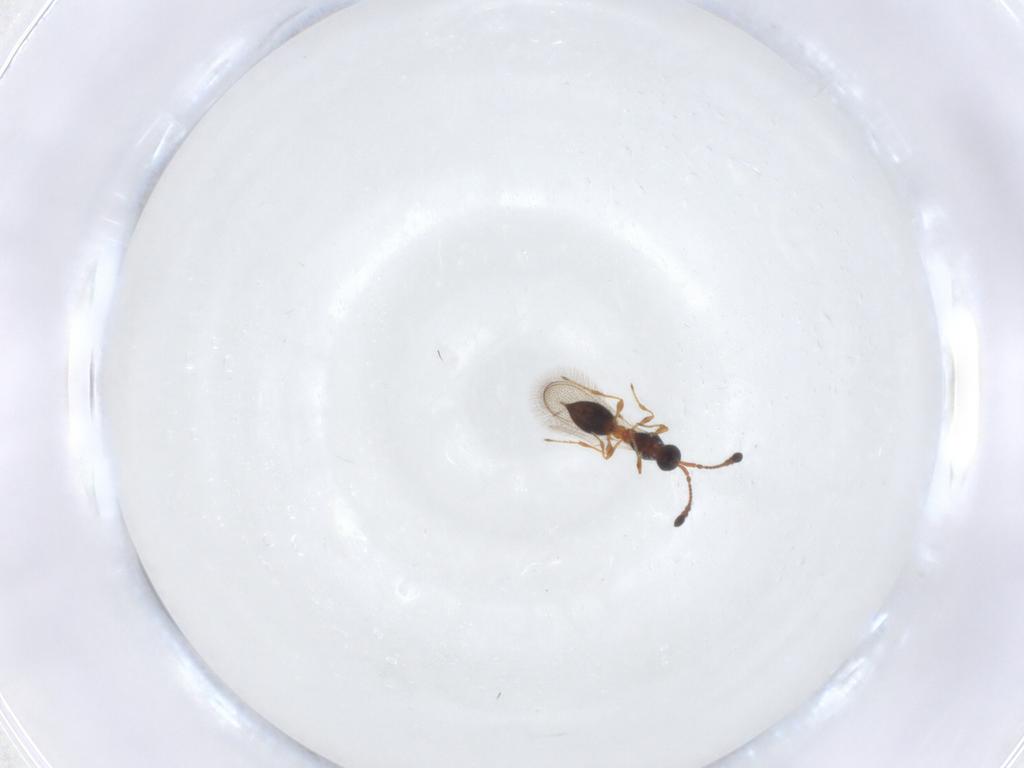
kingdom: Animalia
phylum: Arthropoda
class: Insecta
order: Hymenoptera
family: Diapriidae
